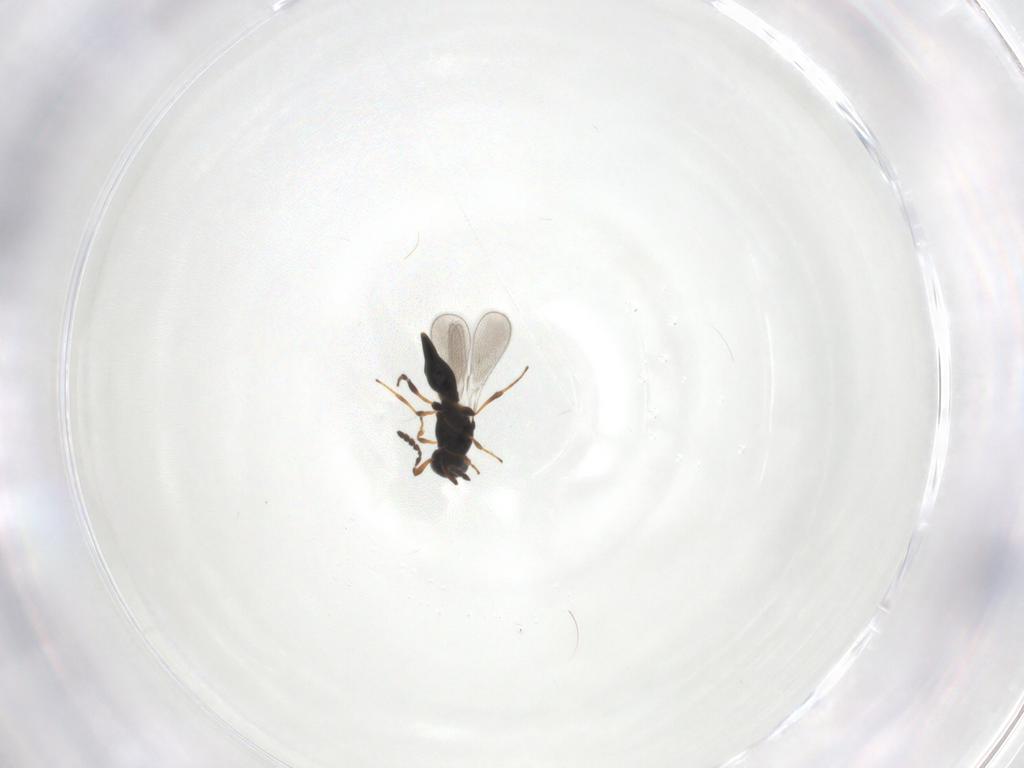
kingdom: Animalia
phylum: Arthropoda
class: Insecta
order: Hymenoptera
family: Platygastridae
